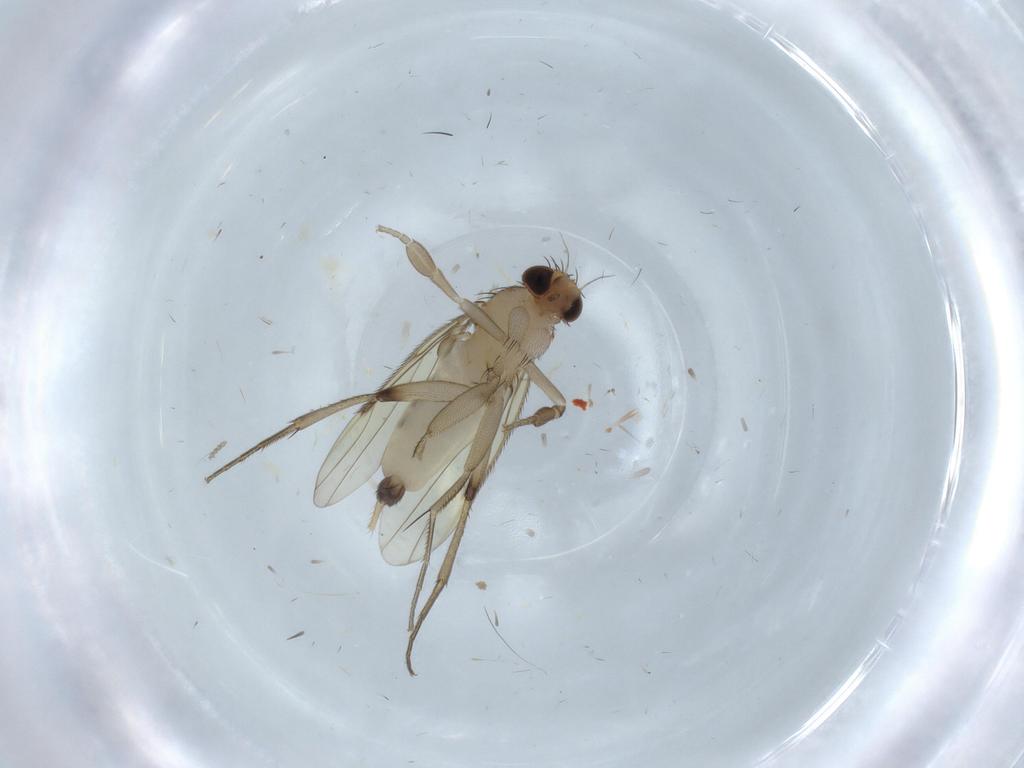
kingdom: Animalia
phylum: Arthropoda
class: Insecta
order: Diptera
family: Phoridae
